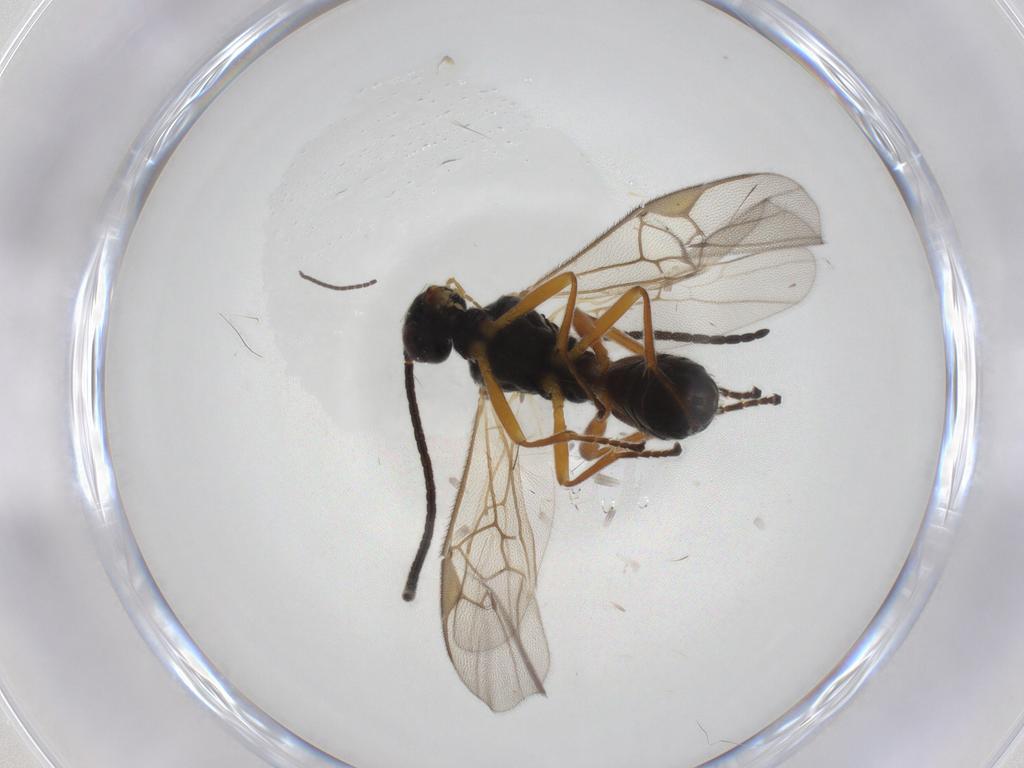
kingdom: Animalia
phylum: Arthropoda
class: Insecta
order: Hymenoptera
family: Braconidae
